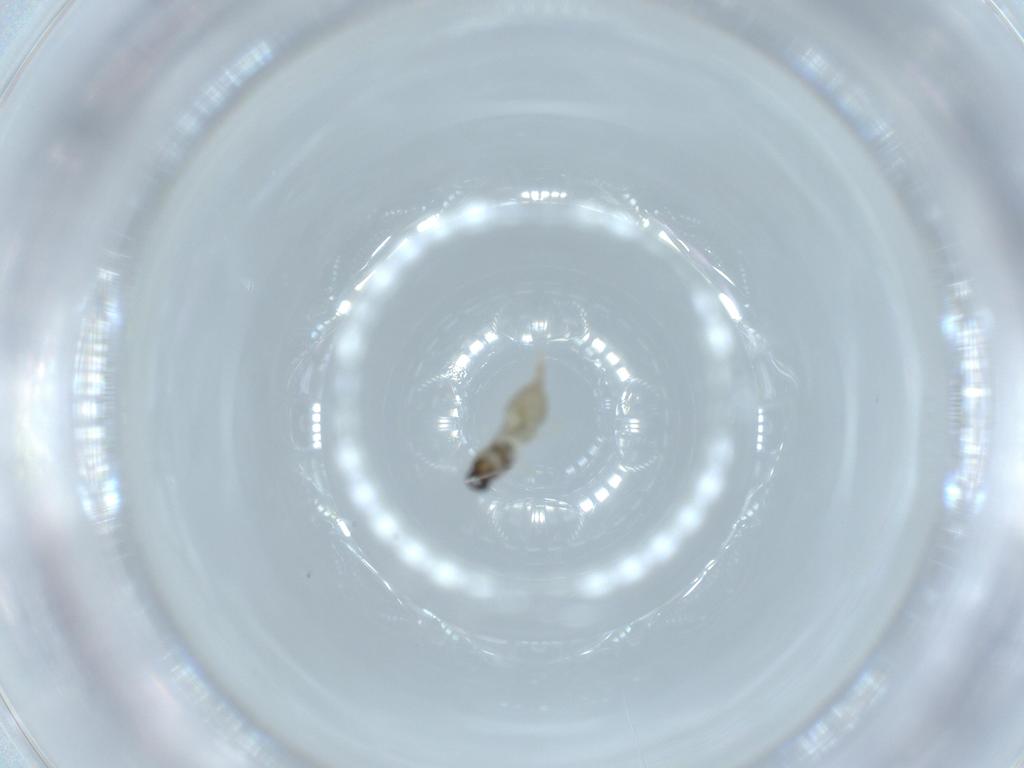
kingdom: Animalia
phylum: Arthropoda
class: Insecta
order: Diptera
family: Cecidomyiidae
